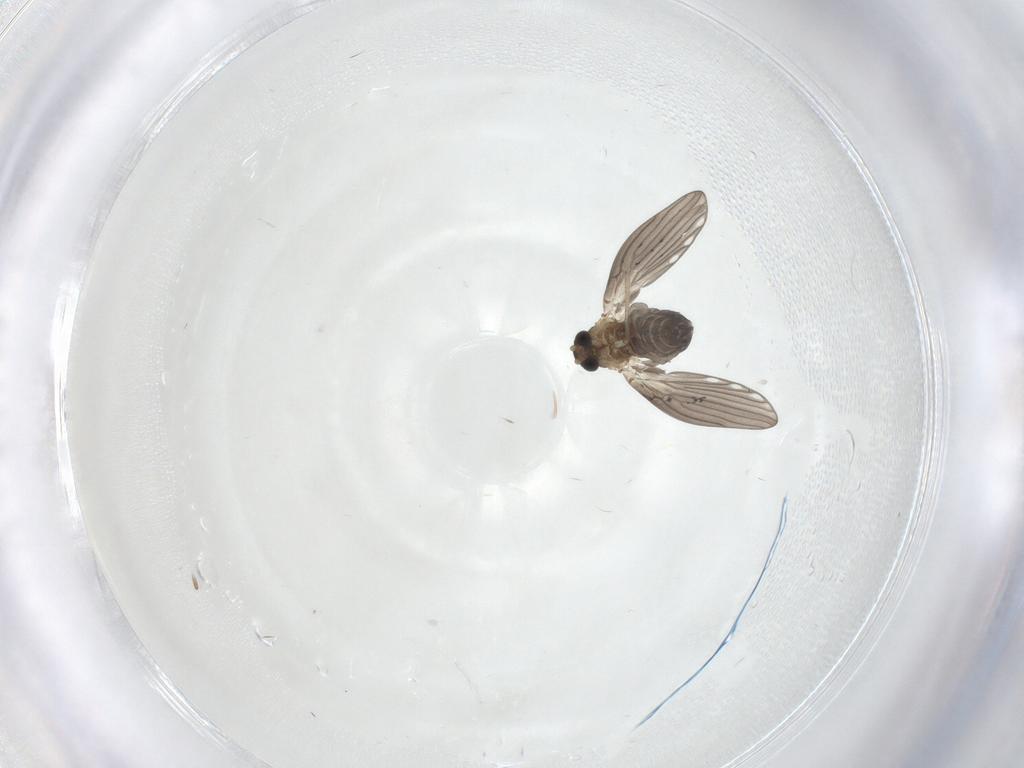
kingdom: Animalia
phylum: Arthropoda
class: Insecta
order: Diptera
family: Psychodidae
